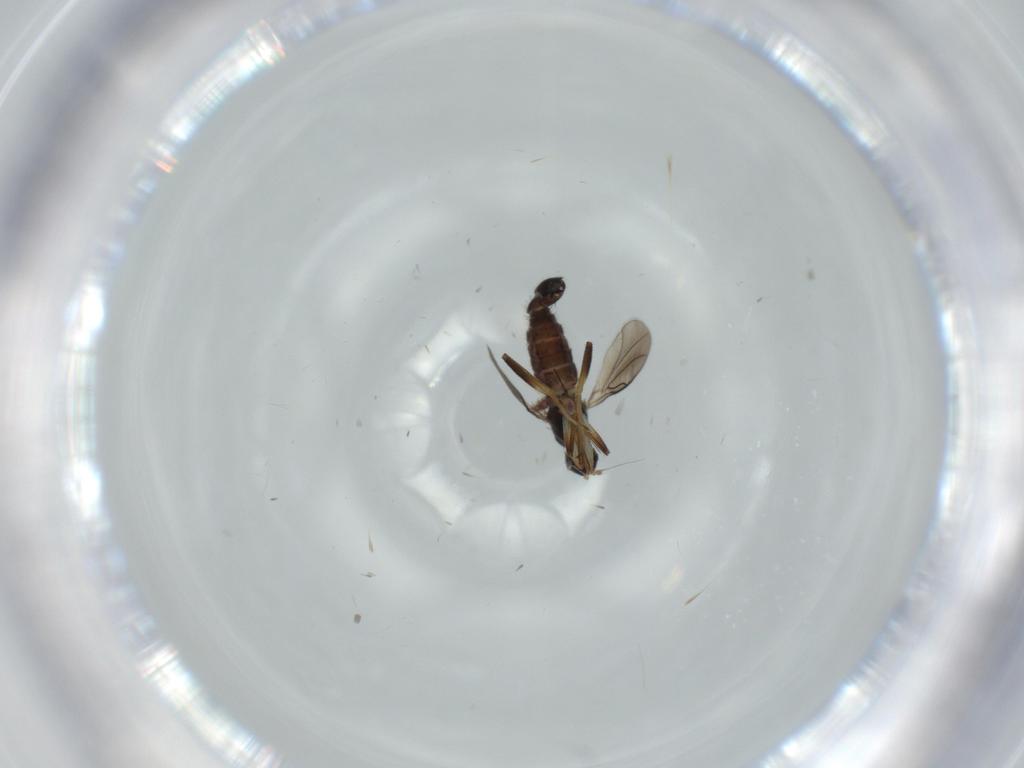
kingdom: Animalia
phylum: Arthropoda
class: Insecta
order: Diptera
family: Hybotidae
